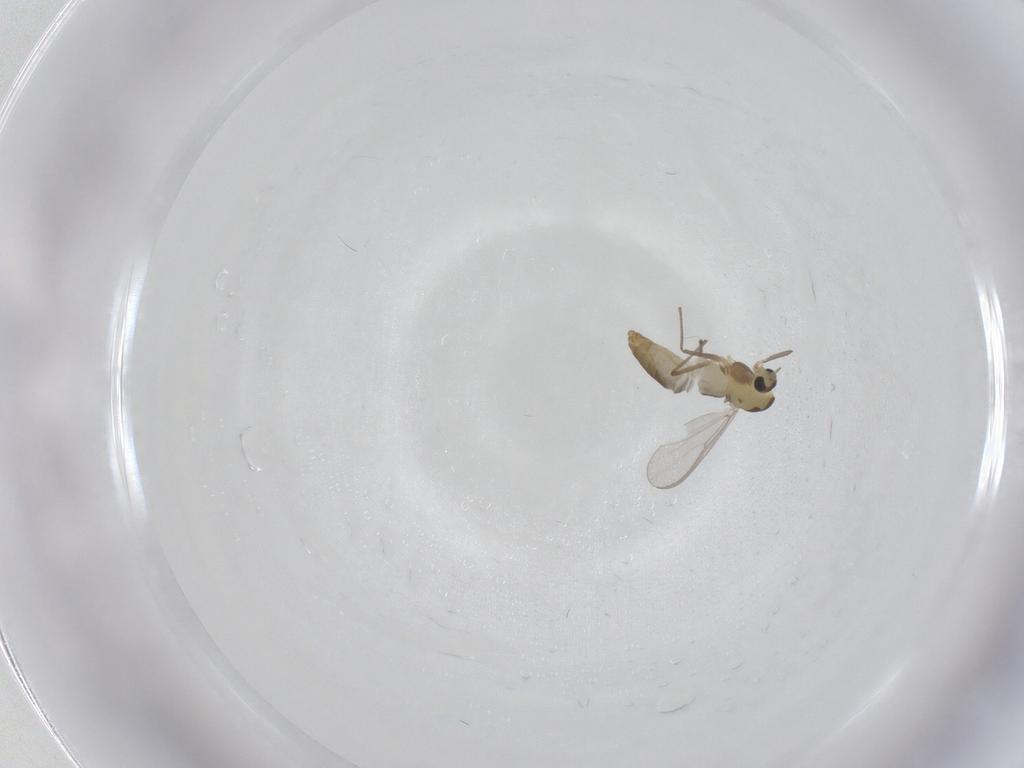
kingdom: Animalia
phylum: Arthropoda
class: Insecta
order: Diptera
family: Chironomidae
